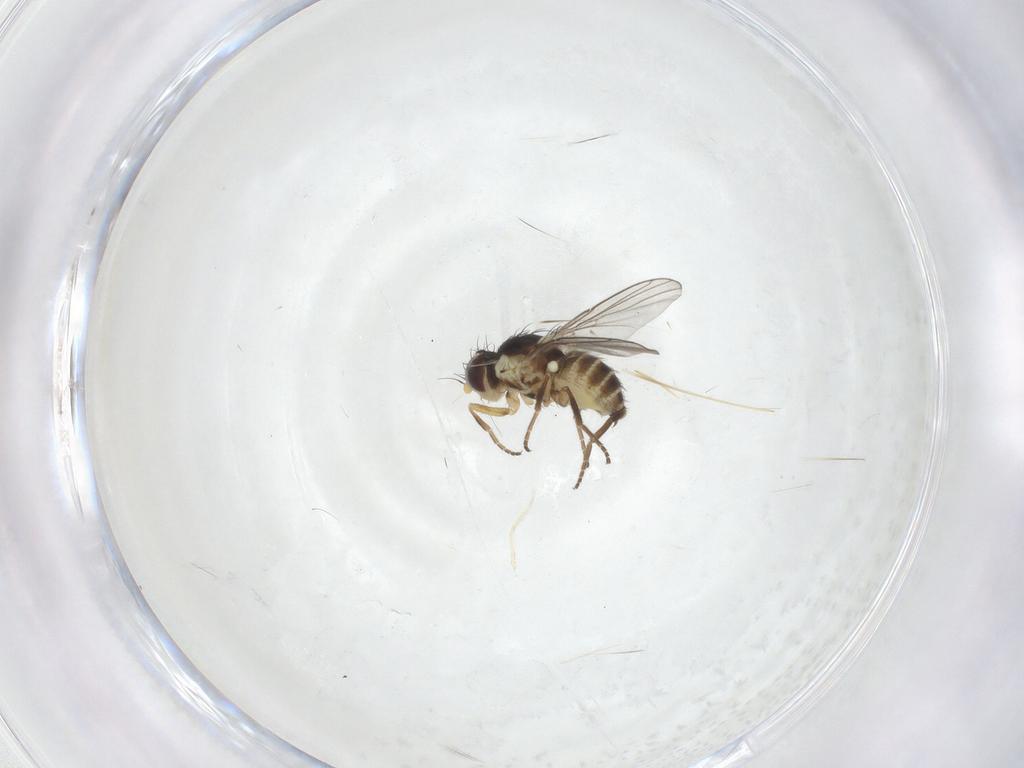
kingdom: Animalia
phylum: Arthropoda
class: Insecta
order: Diptera
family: Agromyzidae
